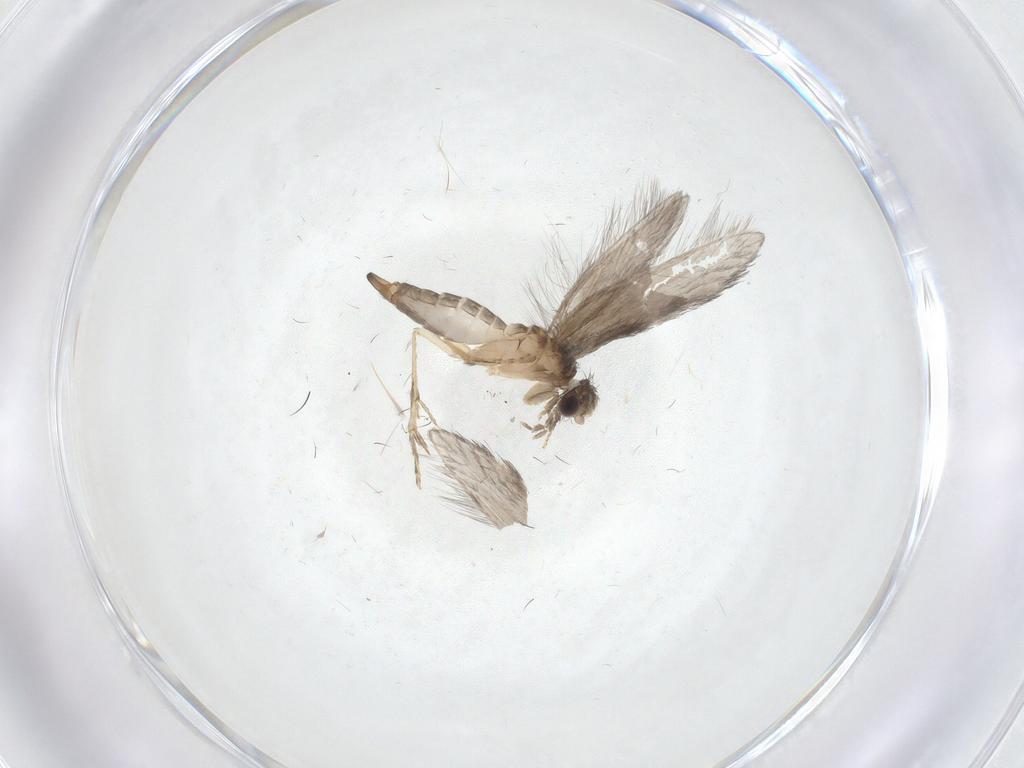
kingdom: Animalia
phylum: Arthropoda
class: Insecta
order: Trichoptera
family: Hydroptilidae
